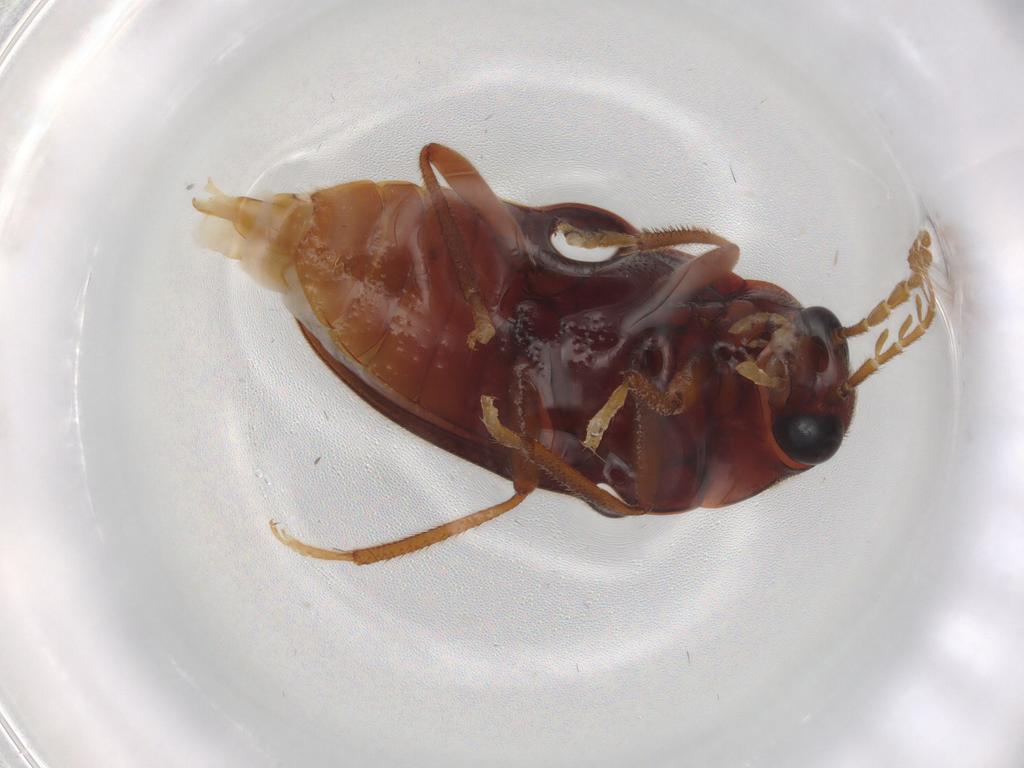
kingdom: Animalia
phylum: Arthropoda
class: Insecta
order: Coleoptera
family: Ptilodactylidae
